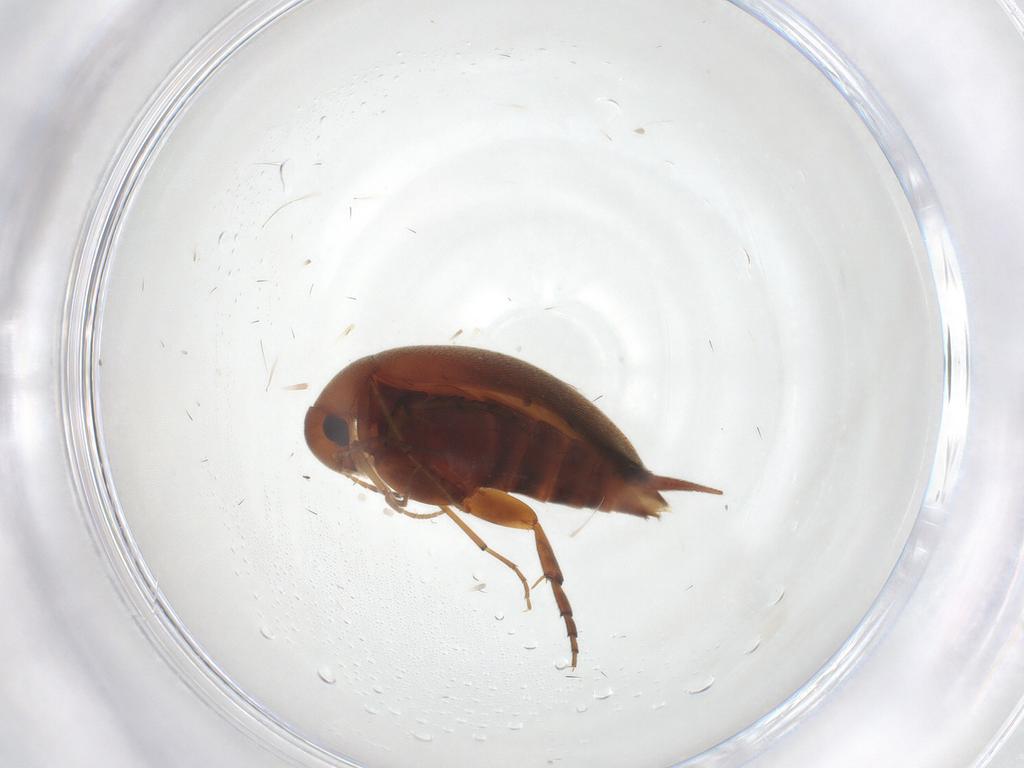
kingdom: Animalia
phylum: Arthropoda
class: Insecta
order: Coleoptera
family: Mordellidae
